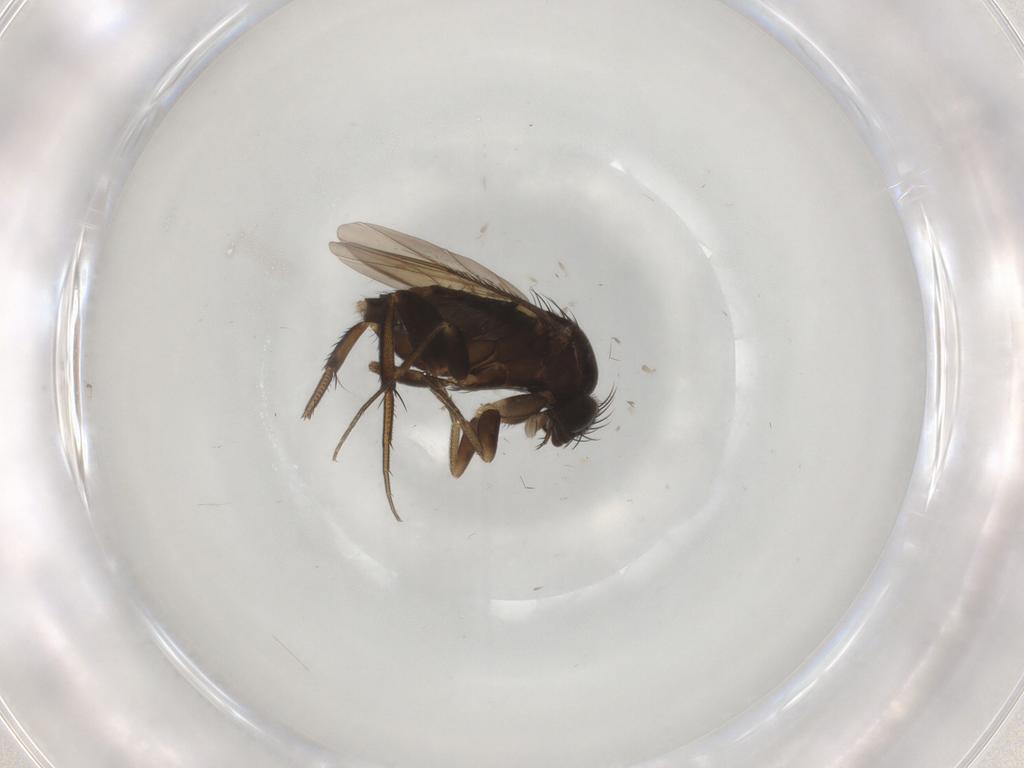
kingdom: Animalia
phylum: Arthropoda
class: Insecta
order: Diptera
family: Phoridae
